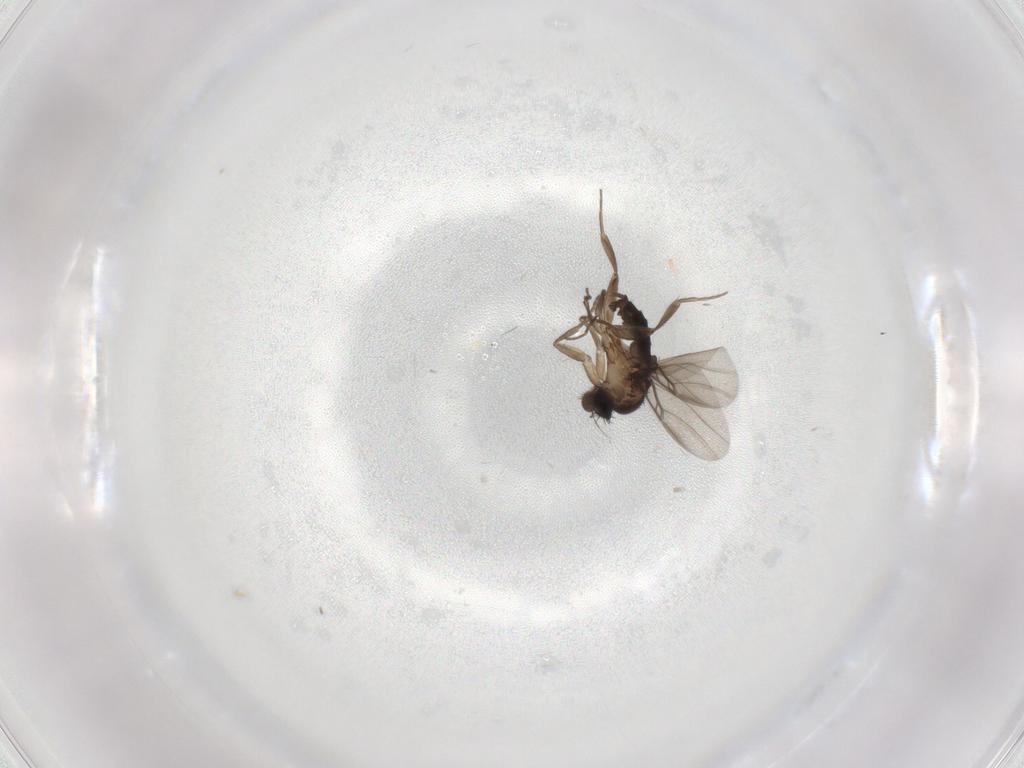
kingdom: Animalia
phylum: Arthropoda
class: Insecta
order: Diptera
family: Phoridae
